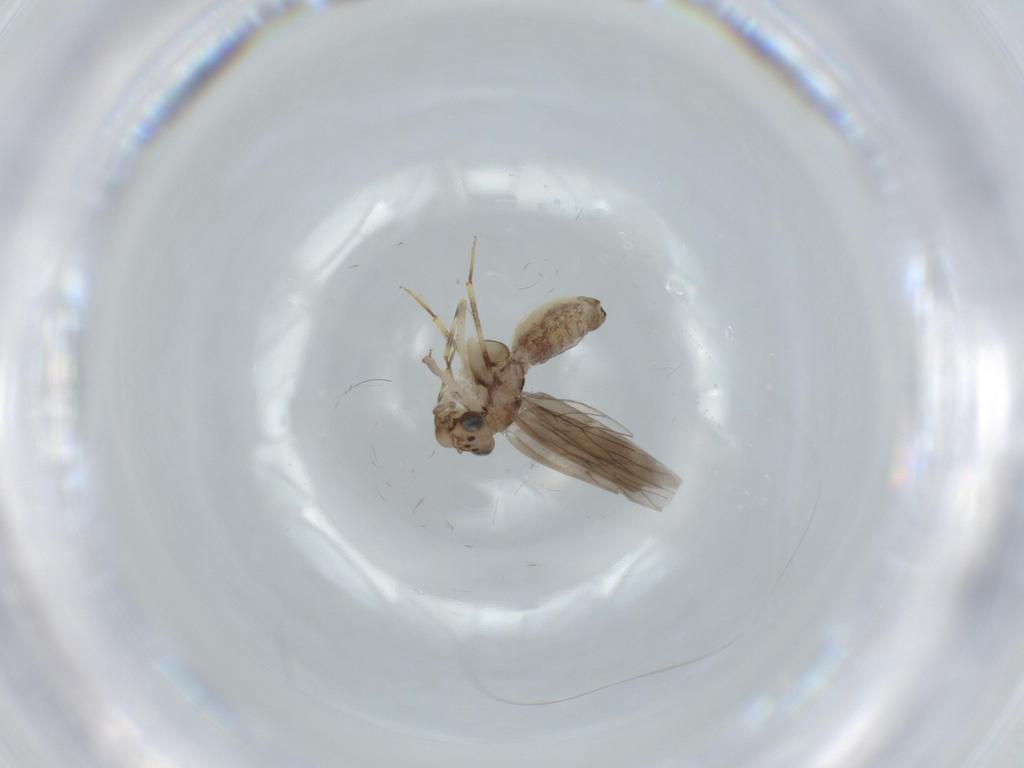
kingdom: Animalia
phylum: Arthropoda
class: Insecta
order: Psocodea
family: Lepidopsocidae
